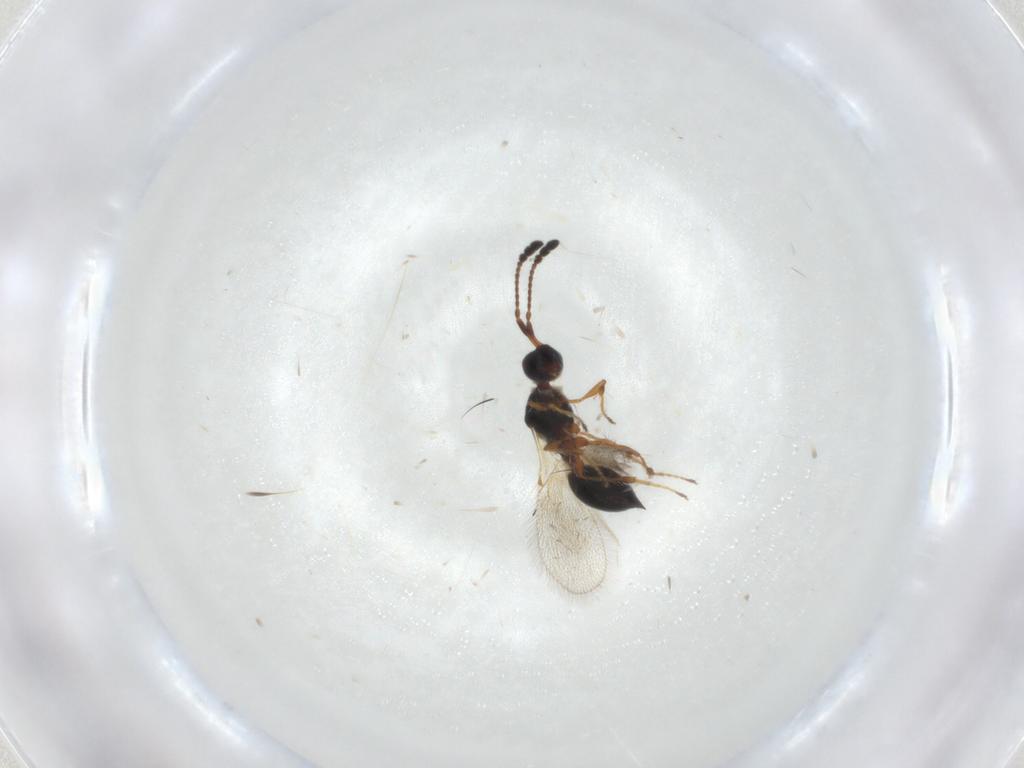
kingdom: Animalia
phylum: Arthropoda
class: Insecta
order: Hymenoptera
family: Diapriidae
